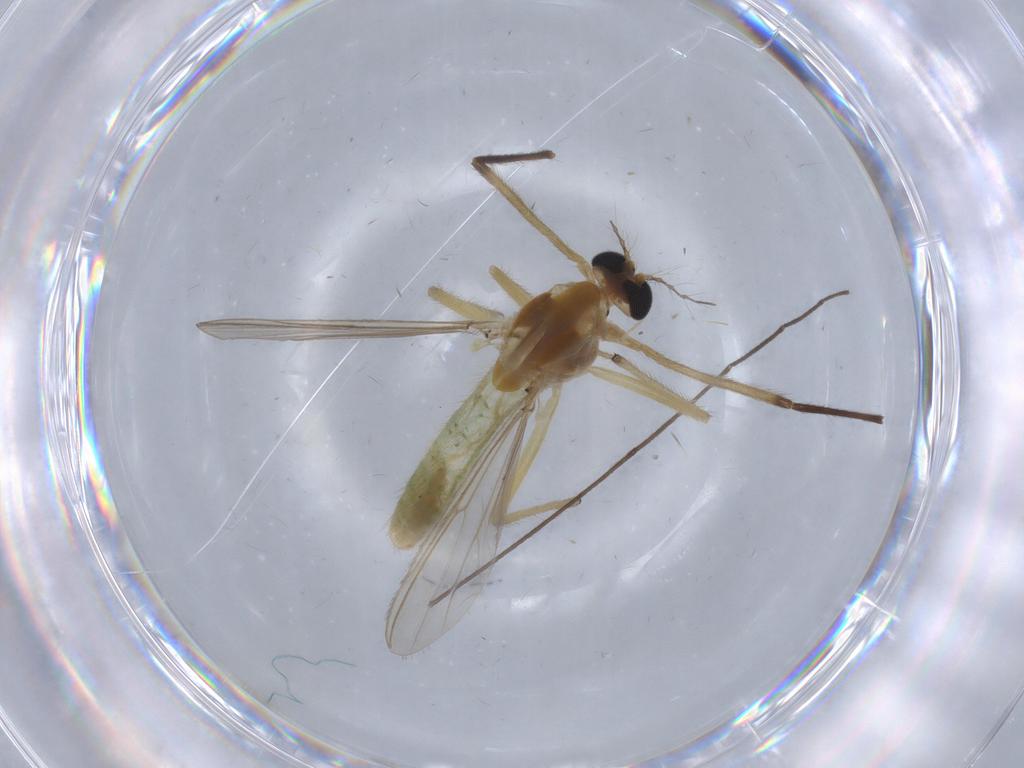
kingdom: Animalia
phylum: Arthropoda
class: Insecta
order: Diptera
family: Chironomidae
